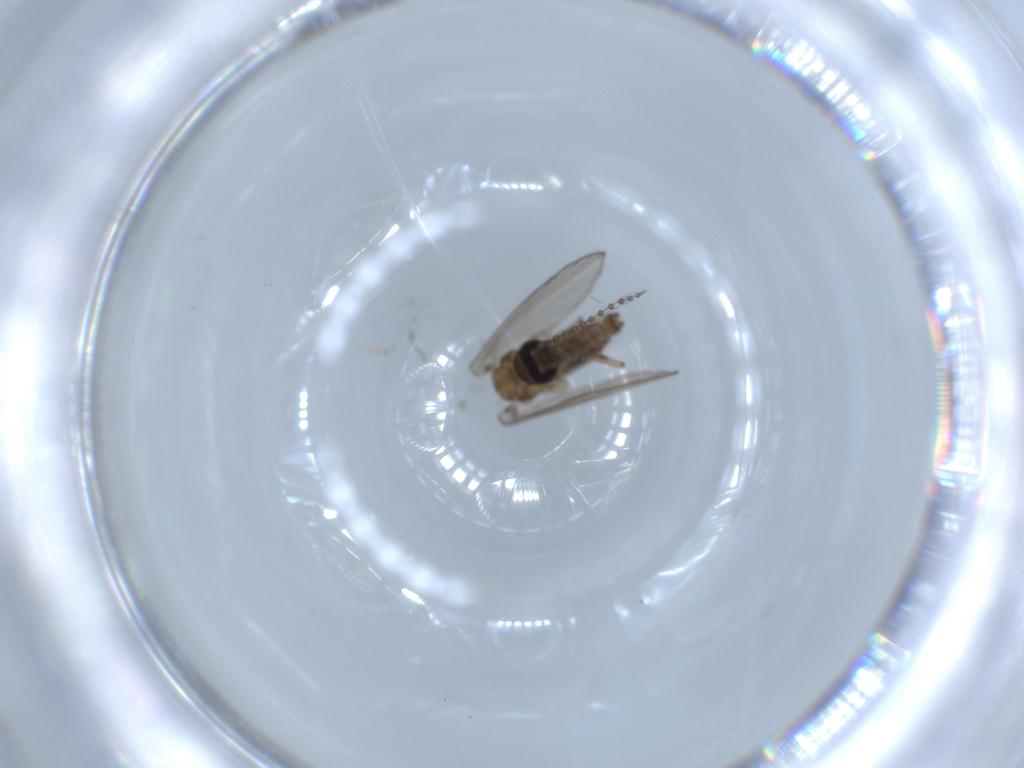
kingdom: Animalia
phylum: Arthropoda
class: Insecta
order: Diptera
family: Psychodidae
